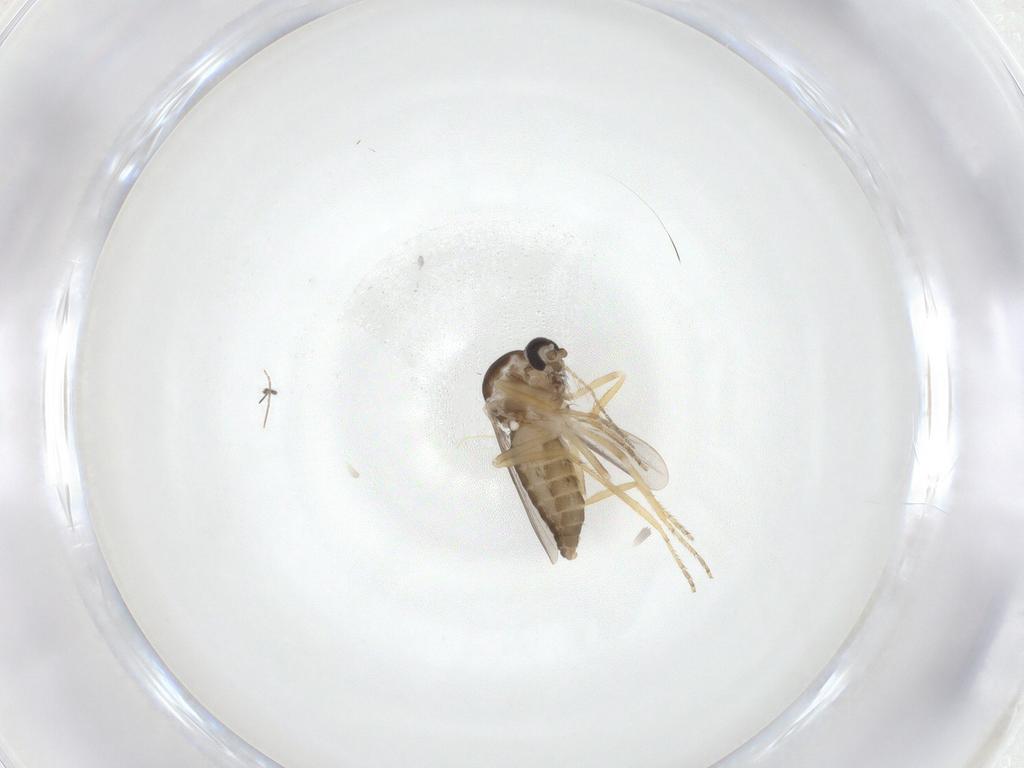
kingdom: Animalia
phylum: Arthropoda
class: Insecta
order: Diptera
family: Ceratopogonidae
